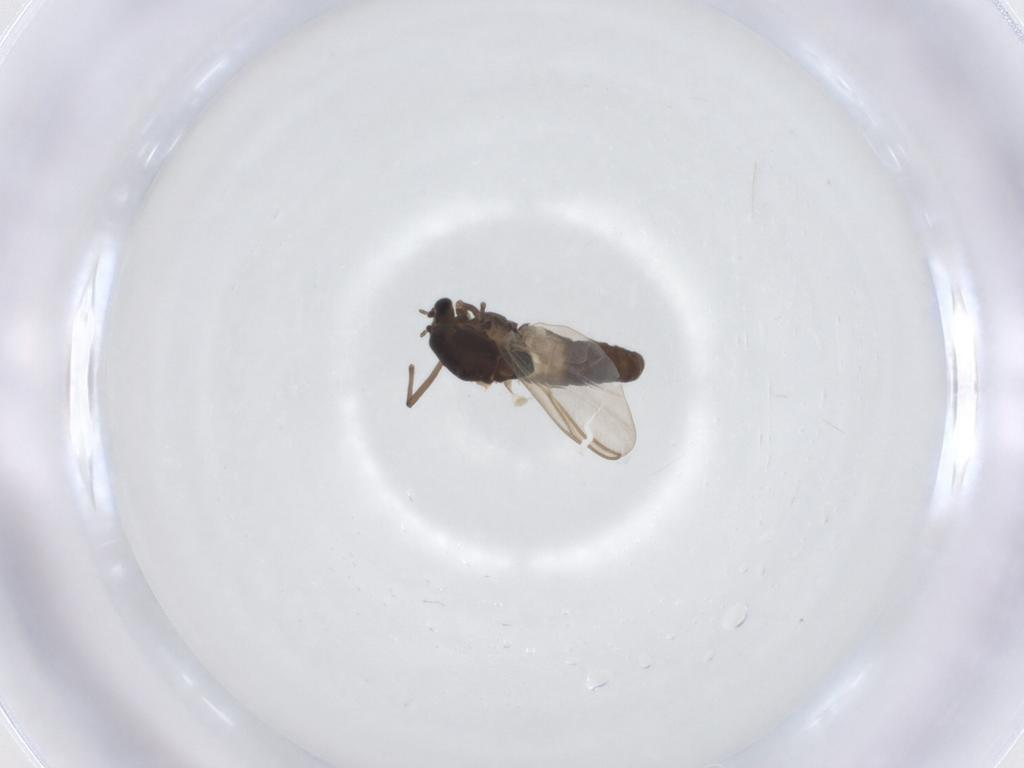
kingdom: Animalia
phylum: Arthropoda
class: Insecta
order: Diptera
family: Chironomidae
